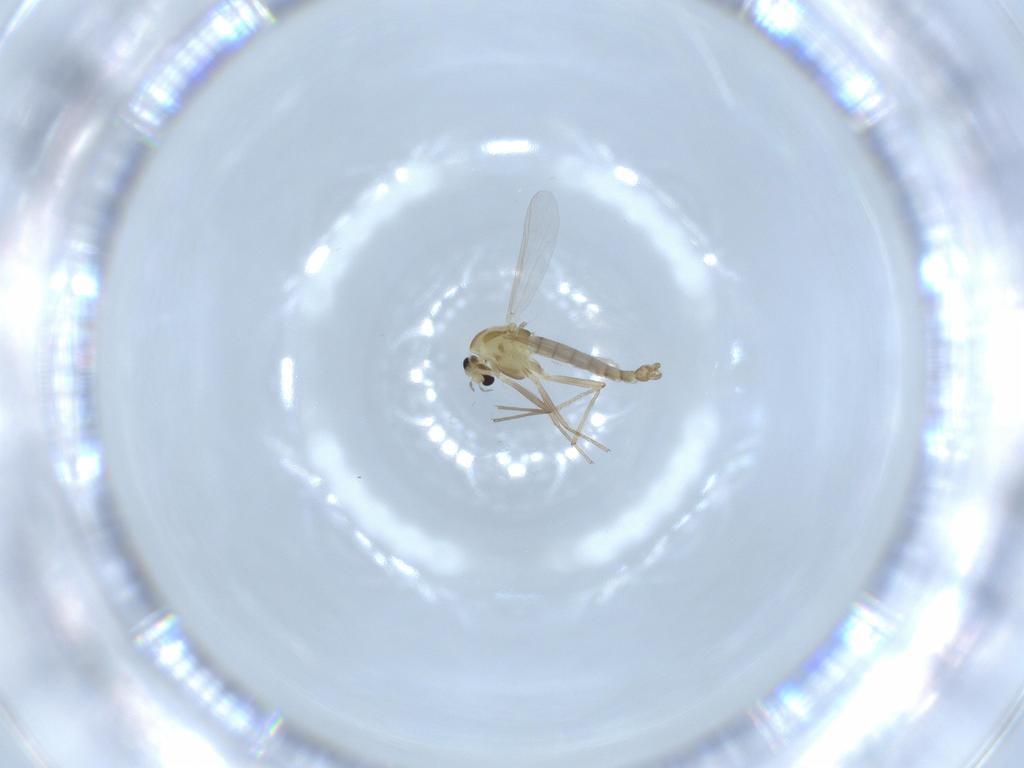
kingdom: Animalia
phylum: Arthropoda
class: Insecta
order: Diptera
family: Chironomidae
